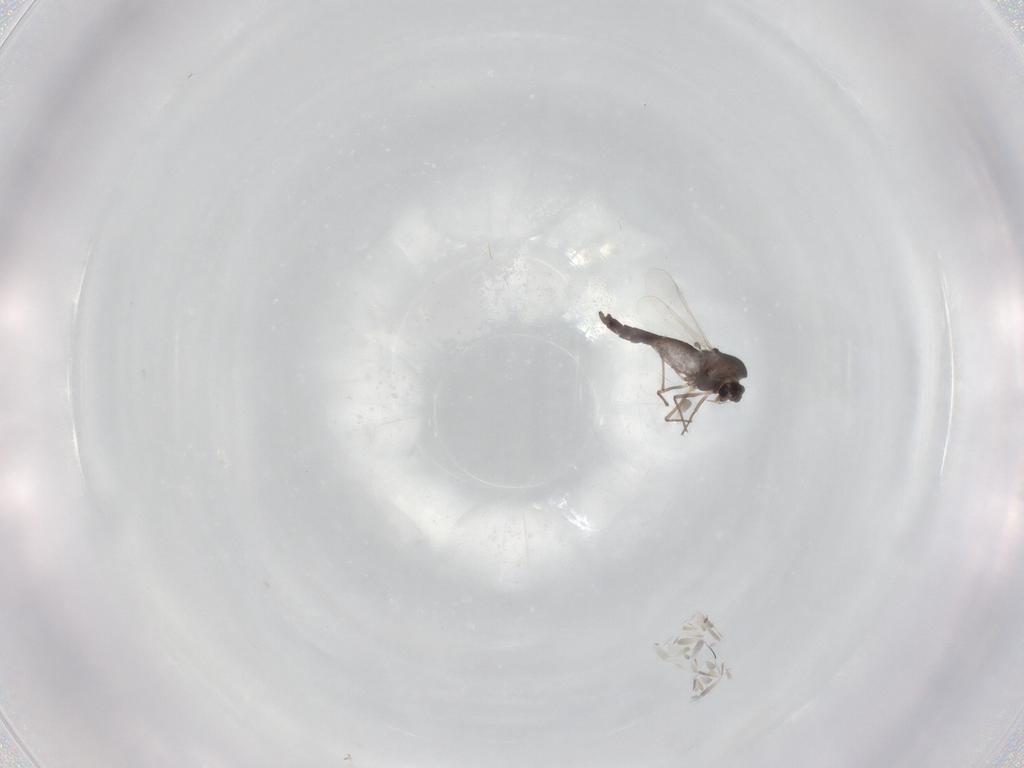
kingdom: Animalia
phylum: Arthropoda
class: Insecta
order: Diptera
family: Chironomidae
